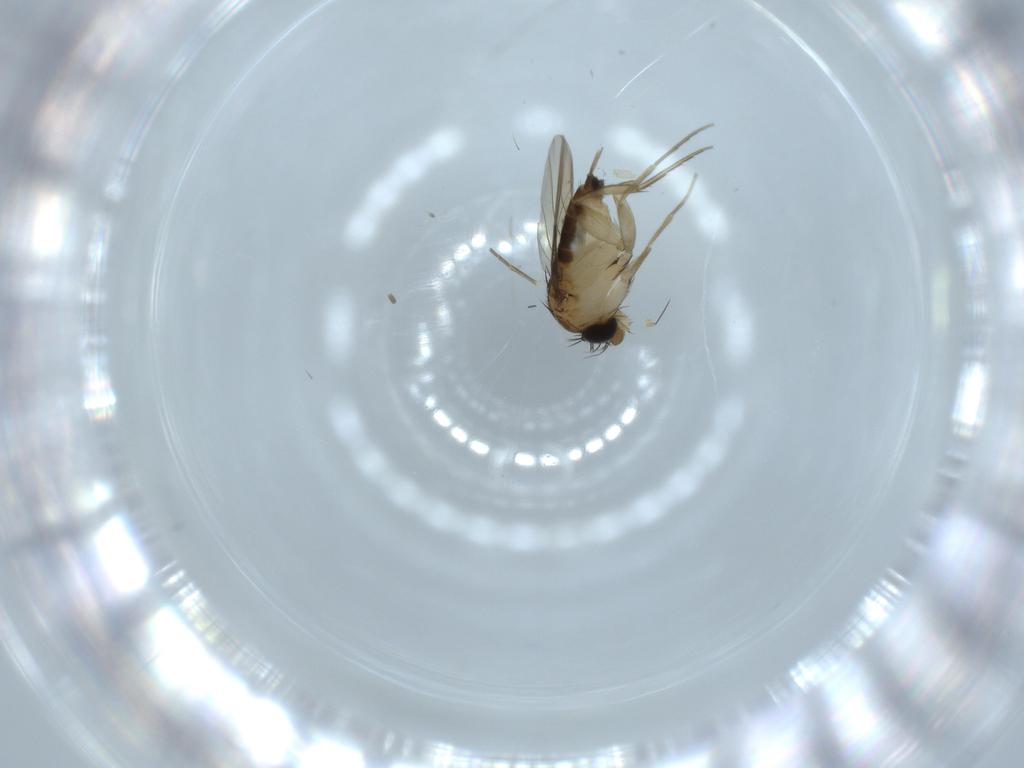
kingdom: Animalia
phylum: Arthropoda
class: Insecta
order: Diptera
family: Phoridae
